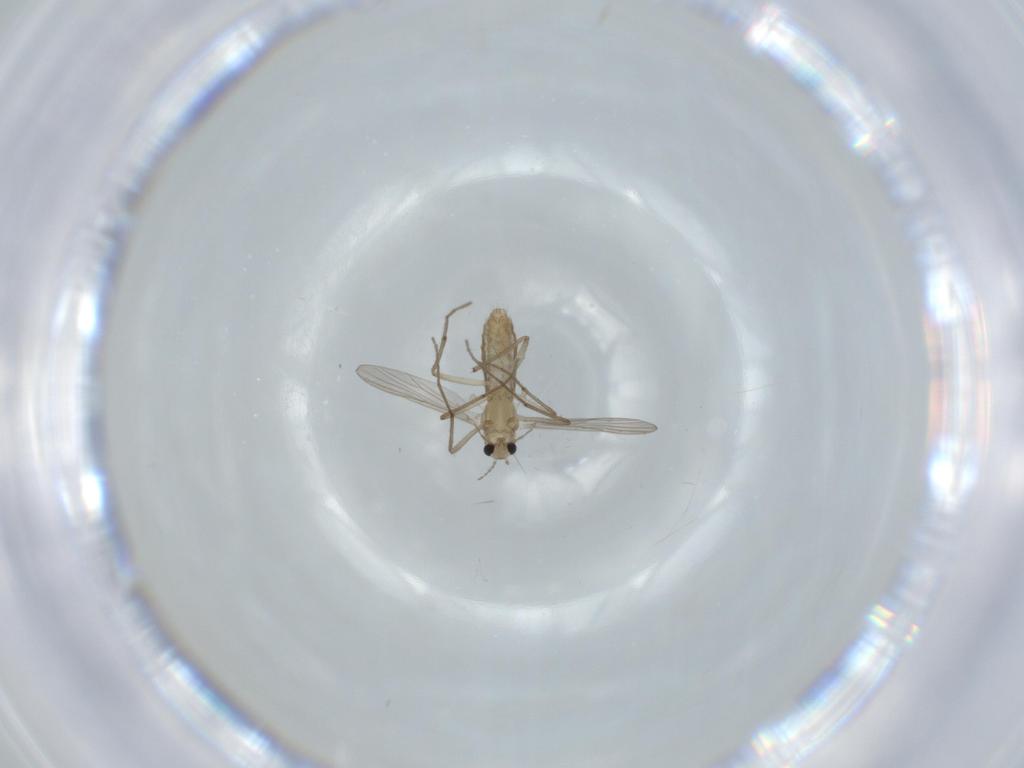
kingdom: Animalia
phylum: Arthropoda
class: Insecta
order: Diptera
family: Chironomidae
